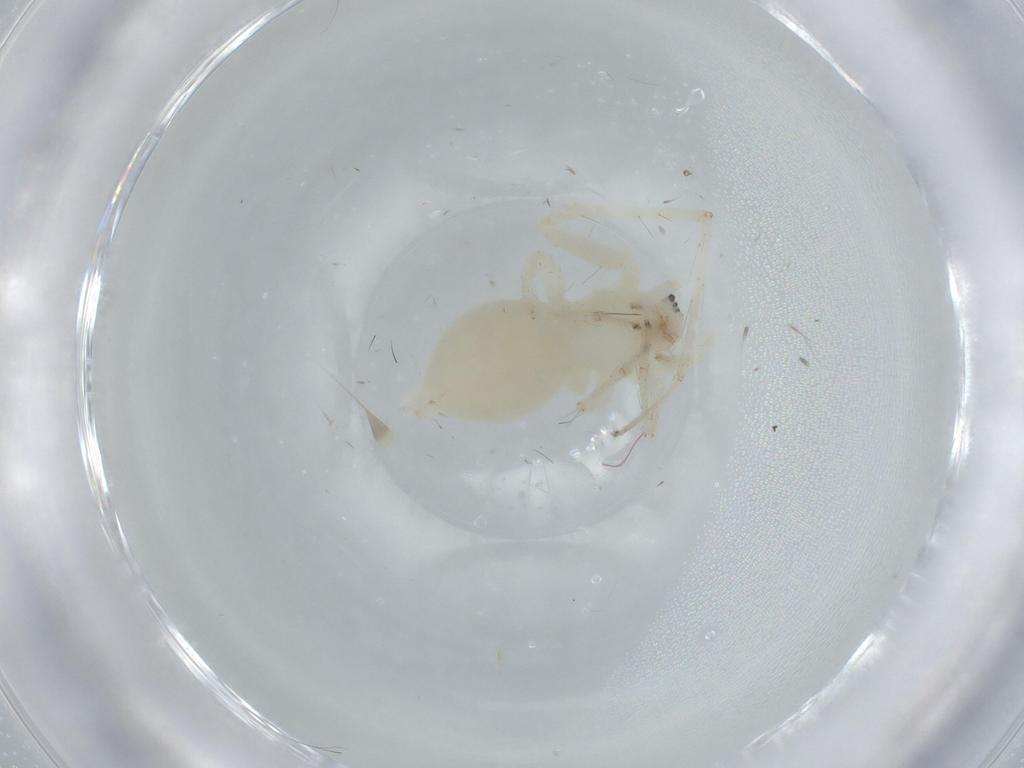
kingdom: Animalia
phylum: Arthropoda
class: Arachnida
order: Araneae
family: Anyphaenidae
